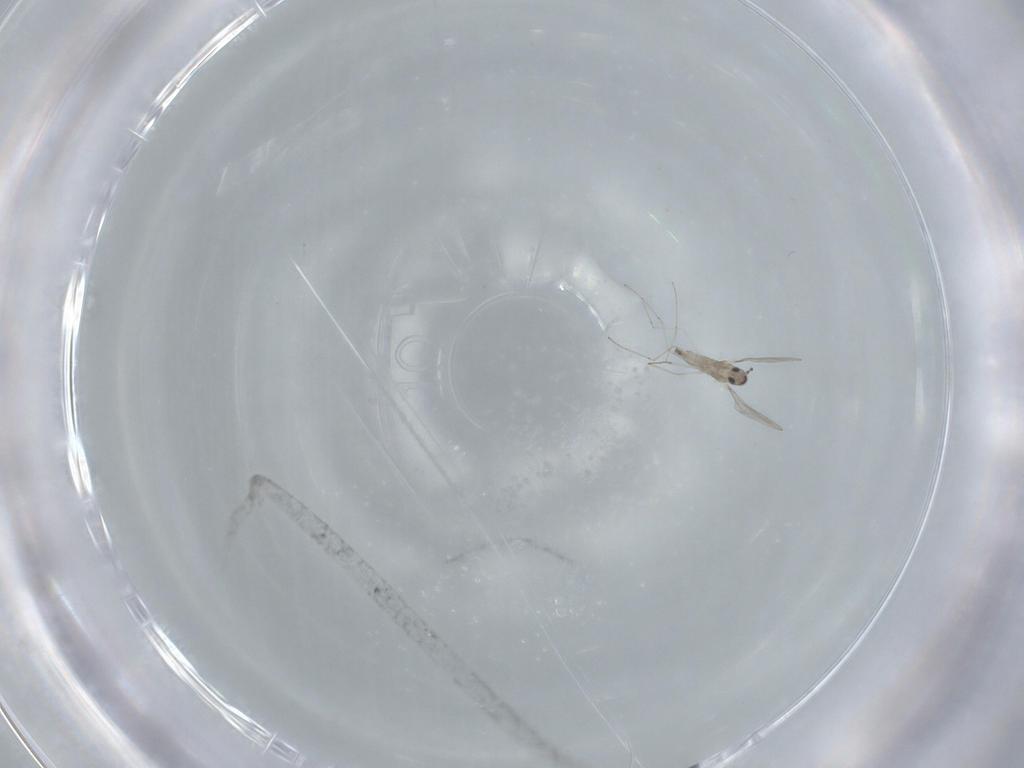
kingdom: Animalia
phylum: Arthropoda
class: Insecta
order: Diptera
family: Cecidomyiidae
